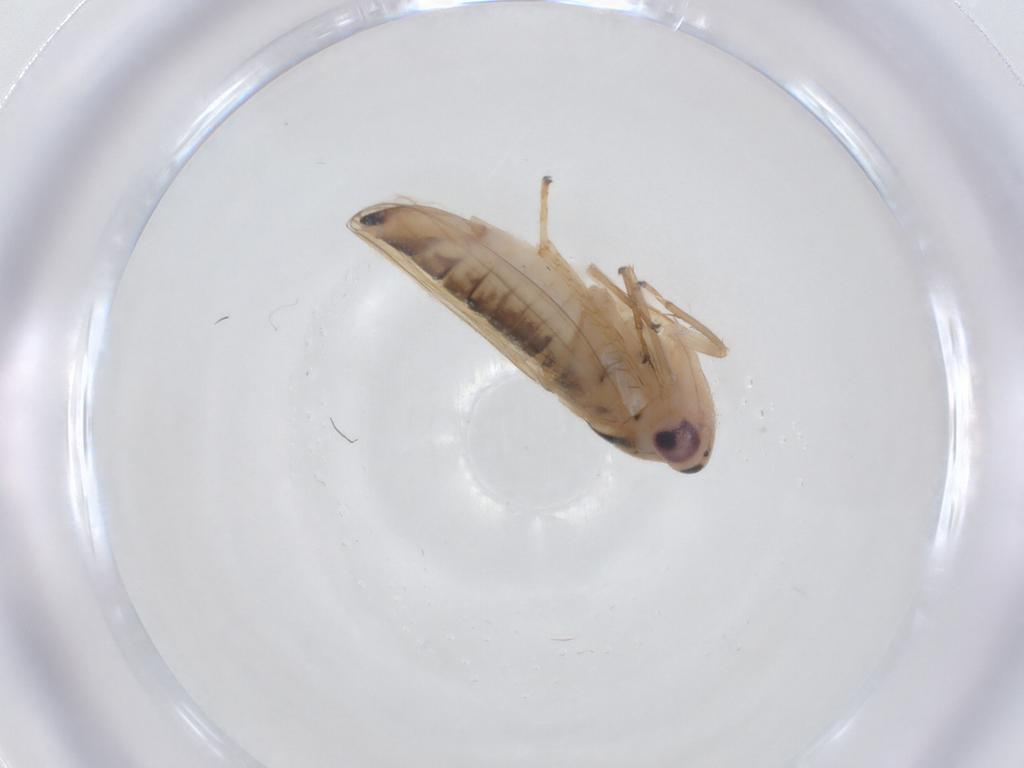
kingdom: Animalia
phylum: Arthropoda
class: Insecta
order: Hemiptera
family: Cicadellidae
